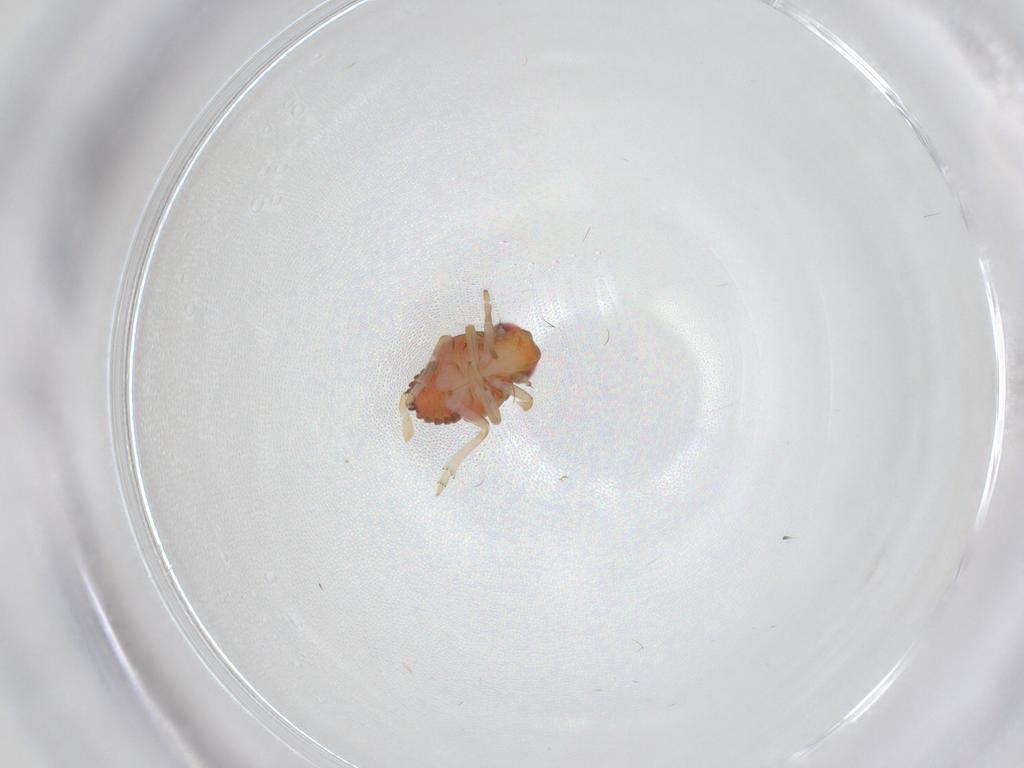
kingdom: Animalia
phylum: Arthropoda
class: Insecta
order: Hemiptera
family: Issidae
